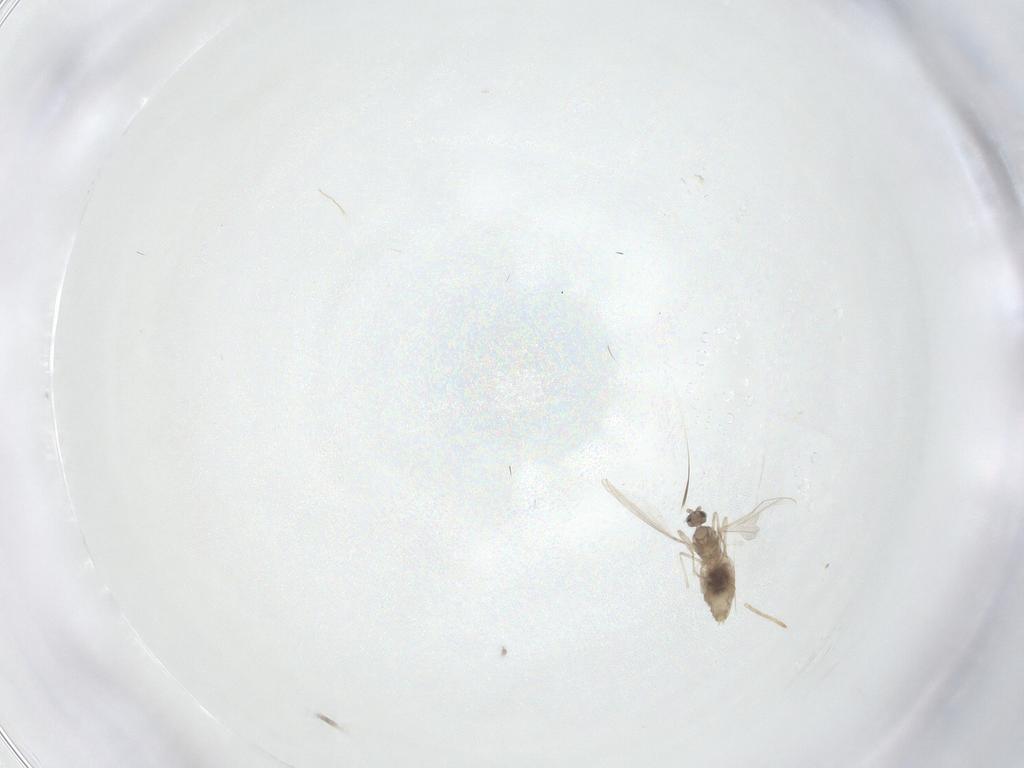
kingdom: Animalia
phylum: Arthropoda
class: Insecta
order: Diptera
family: Cecidomyiidae
